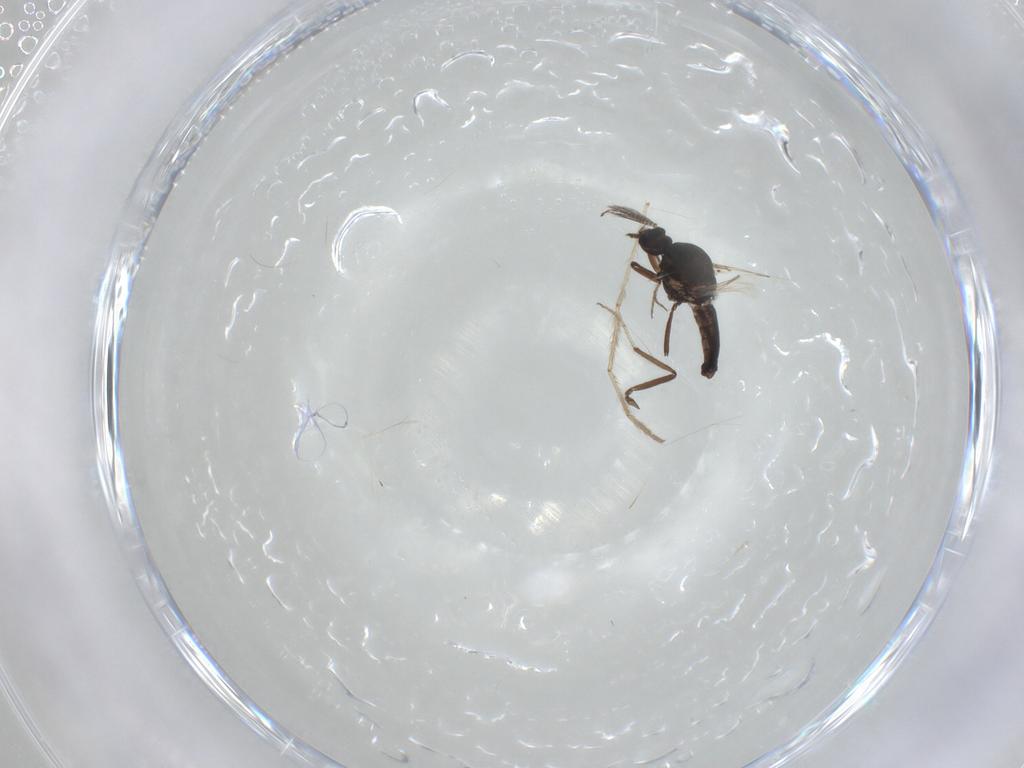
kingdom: Animalia
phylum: Arthropoda
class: Insecta
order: Diptera
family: Chironomidae
